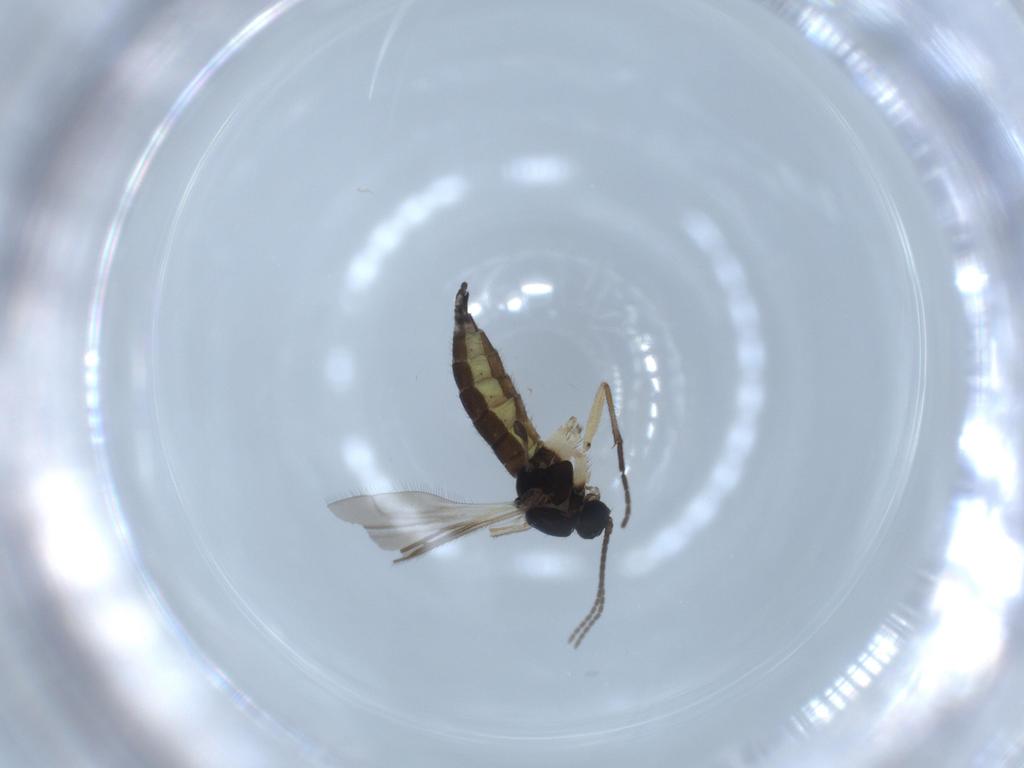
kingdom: Animalia
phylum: Arthropoda
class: Insecta
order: Diptera
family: Sciaridae
